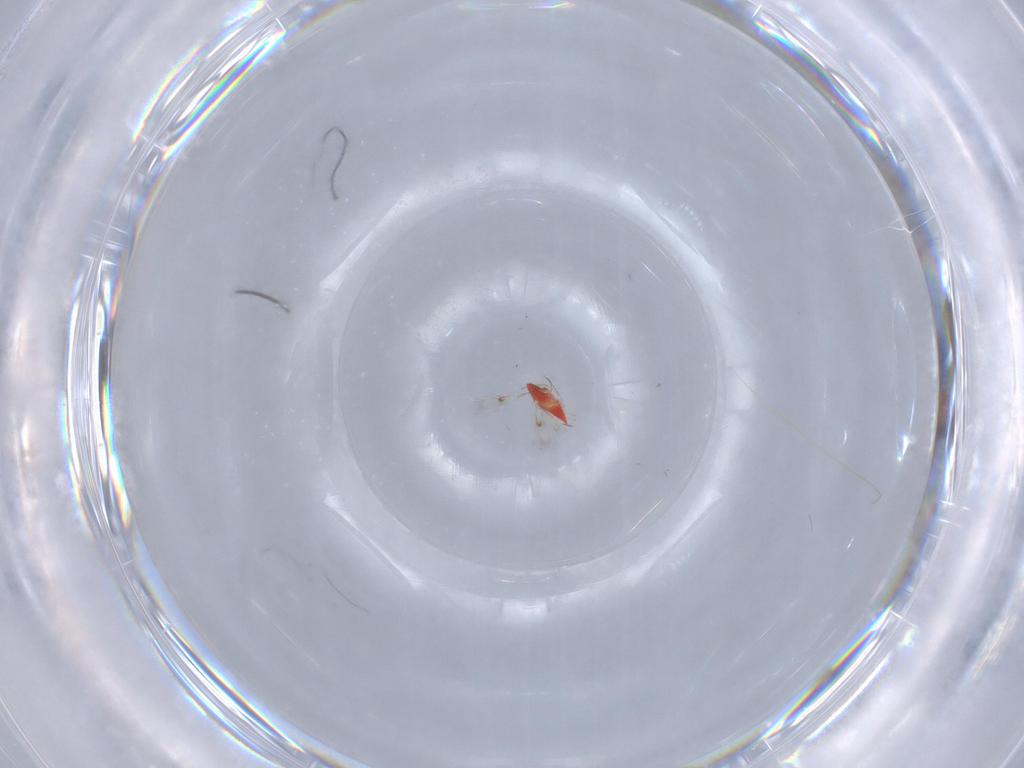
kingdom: Animalia
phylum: Arthropoda
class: Insecta
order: Hymenoptera
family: Trichogrammatidae
